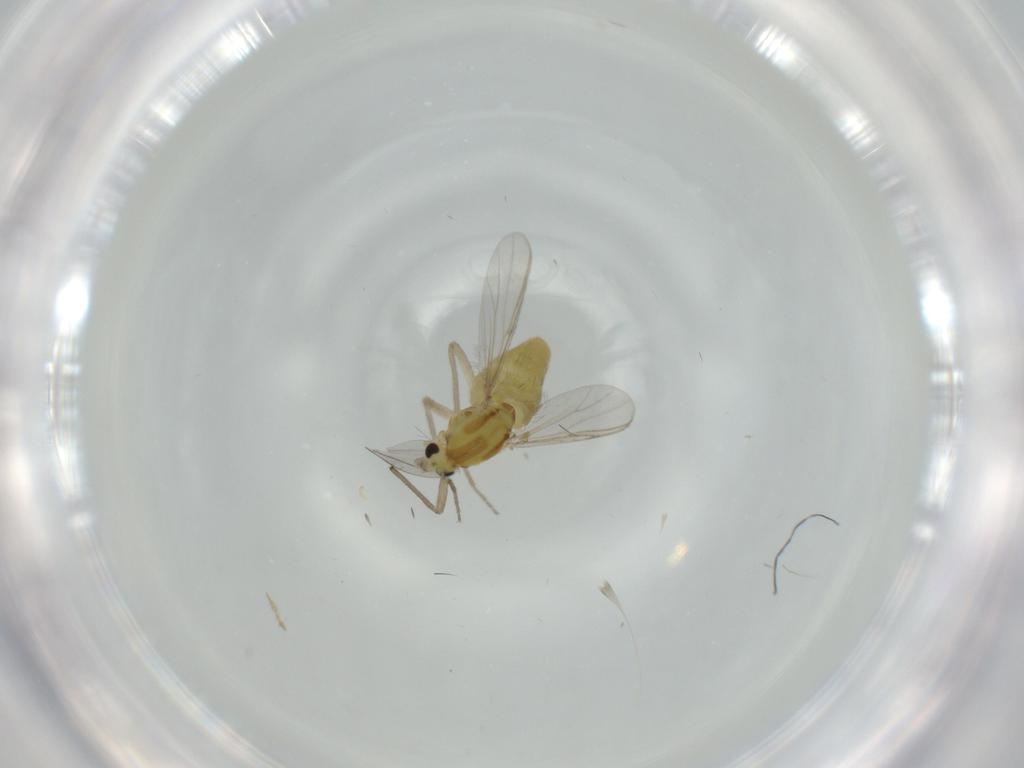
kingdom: Animalia
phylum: Arthropoda
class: Insecta
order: Diptera
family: Chironomidae
